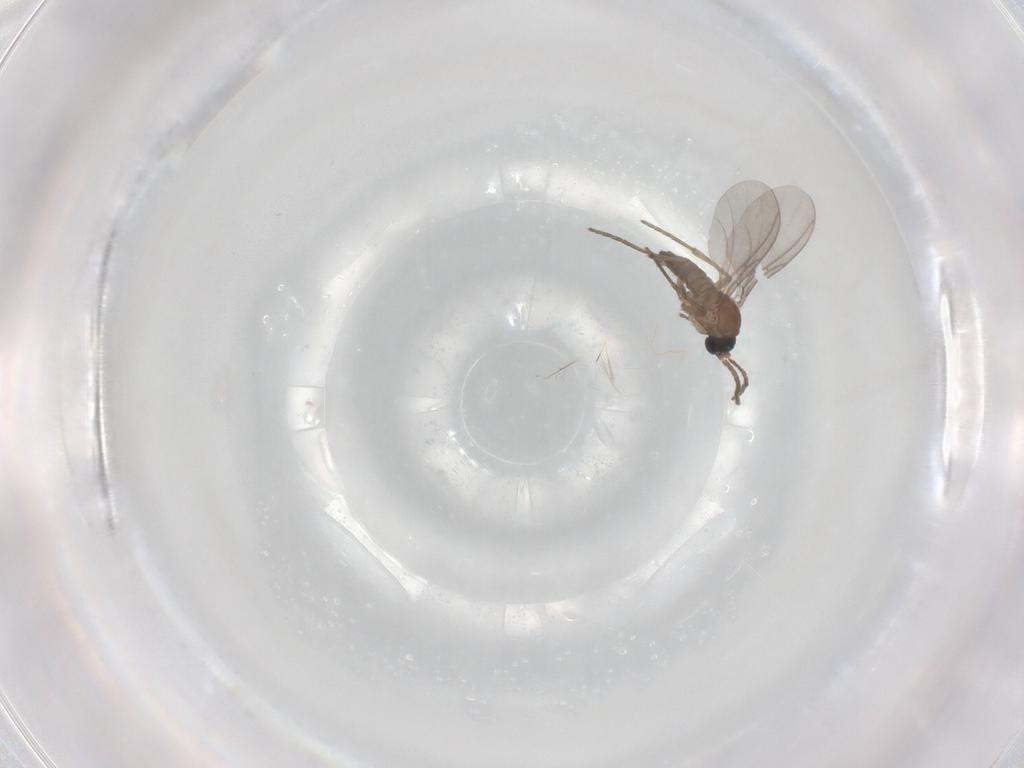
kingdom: Animalia
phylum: Arthropoda
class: Insecta
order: Diptera
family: Sciaridae
